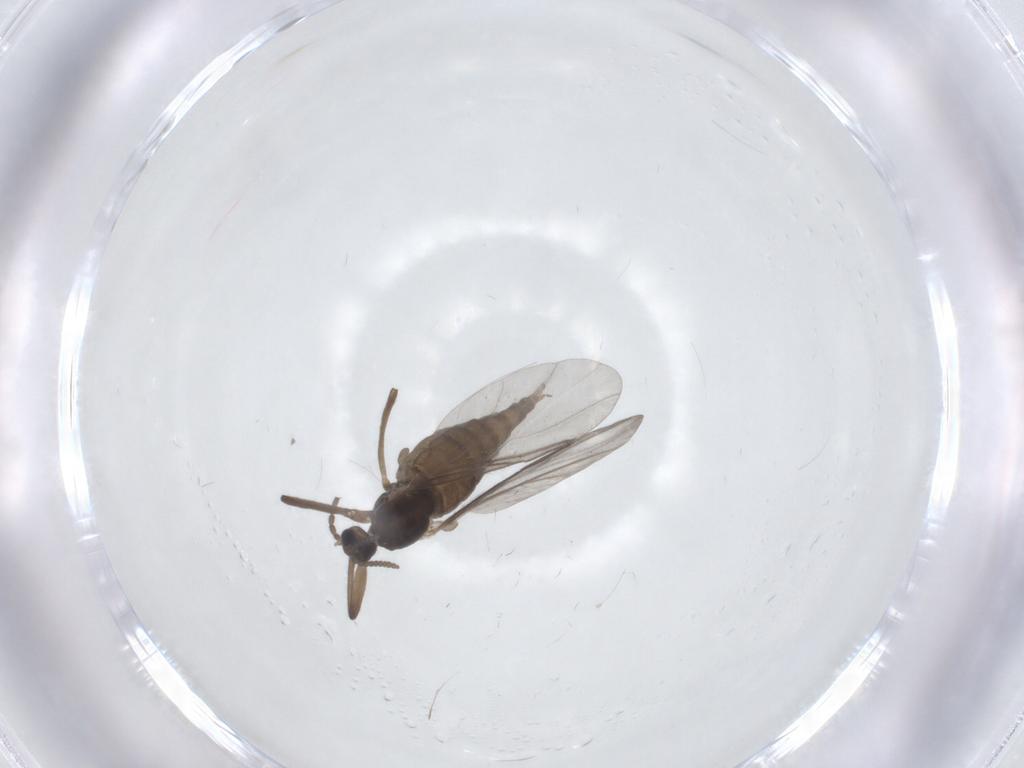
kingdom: Animalia
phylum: Arthropoda
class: Insecta
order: Diptera
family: Cecidomyiidae
